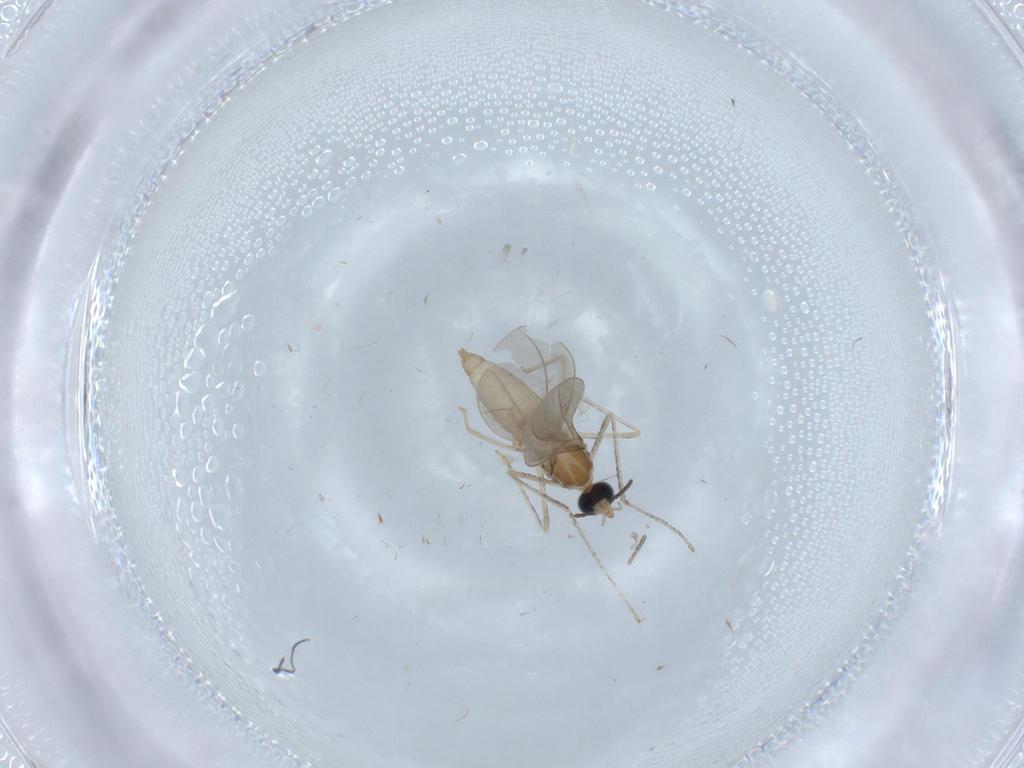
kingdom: Animalia
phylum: Arthropoda
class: Insecta
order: Diptera
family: Cecidomyiidae
